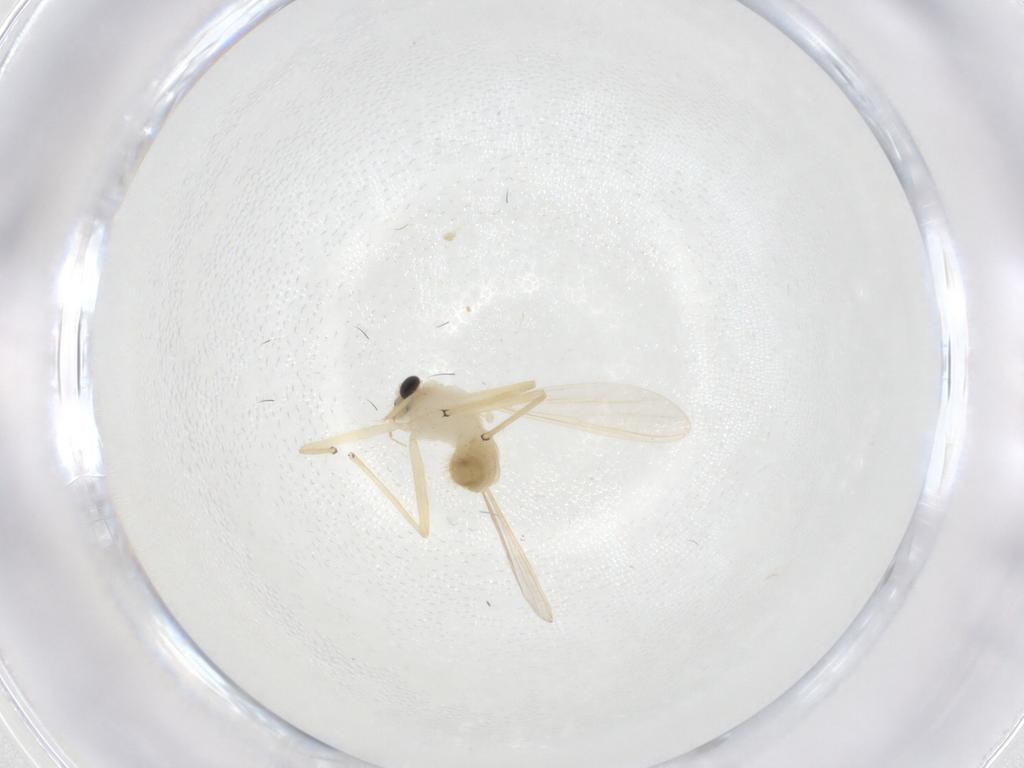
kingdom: Animalia
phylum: Arthropoda
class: Insecta
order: Diptera
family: Chironomidae
